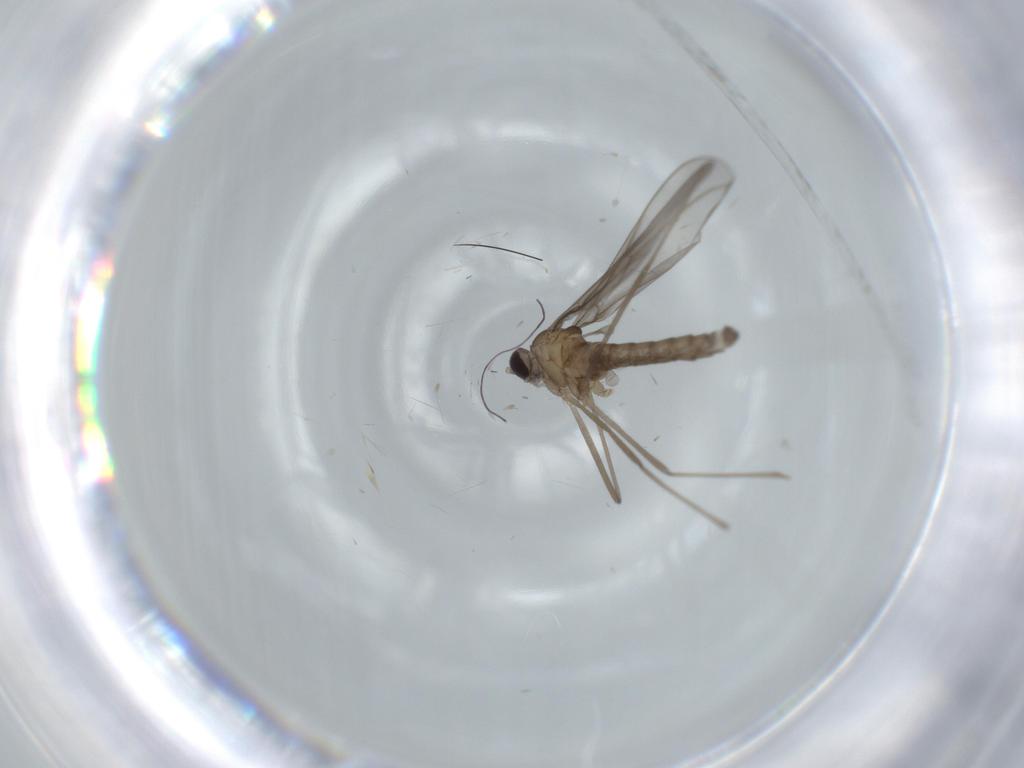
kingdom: Animalia
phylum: Arthropoda
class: Insecta
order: Diptera
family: Cecidomyiidae
